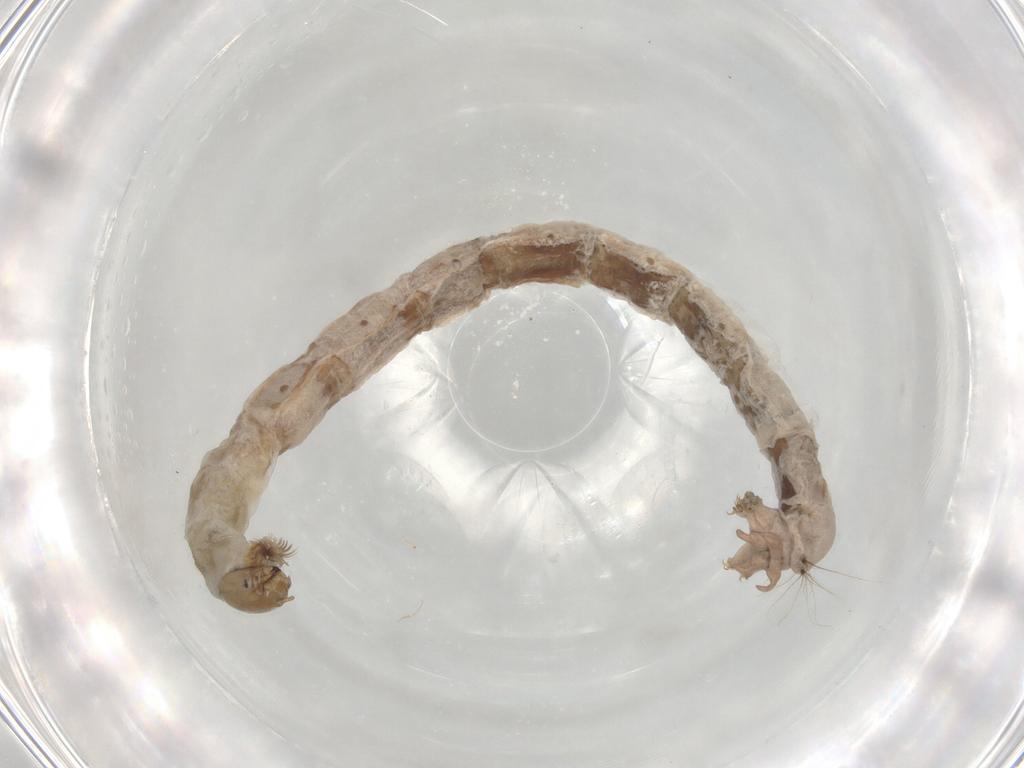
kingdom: Animalia
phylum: Arthropoda
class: Insecta
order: Diptera
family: Chironomidae
